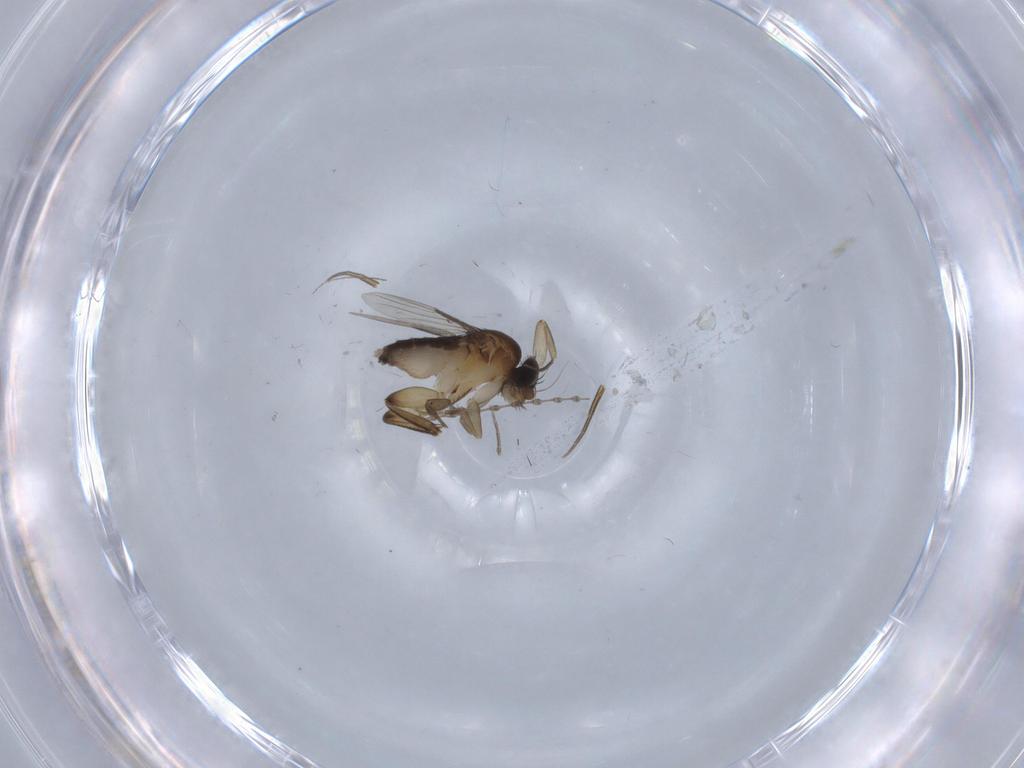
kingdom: Animalia
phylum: Arthropoda
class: Insecta
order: Diptera
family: Phoridae
